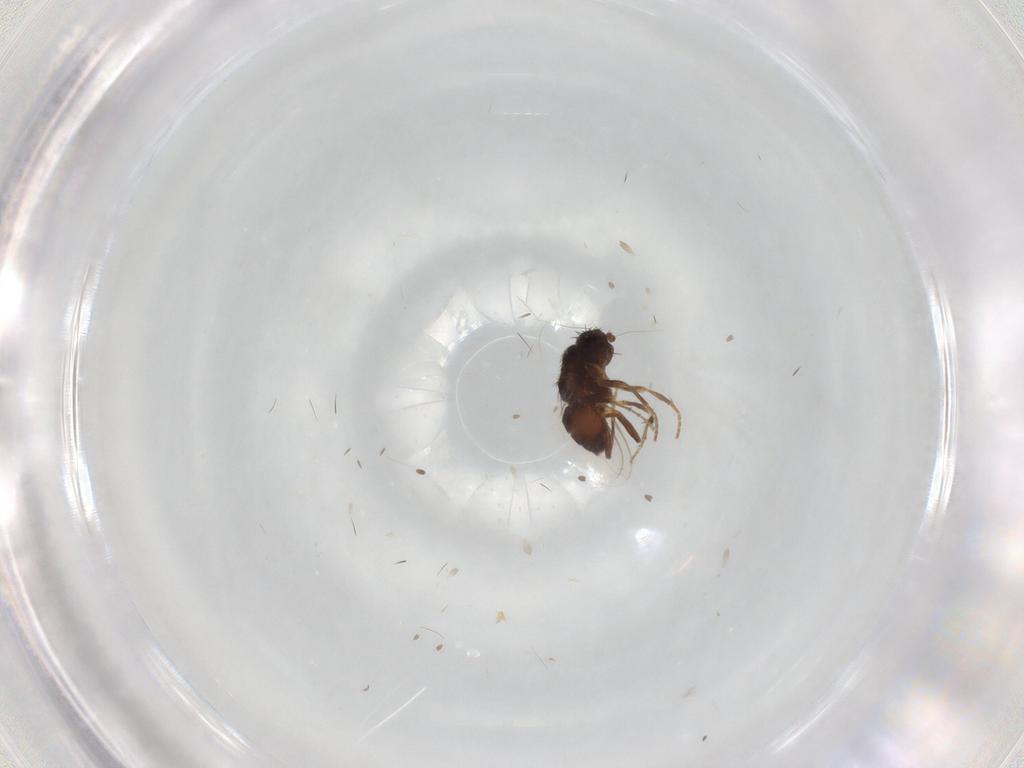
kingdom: Animalia
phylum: Arthropoda
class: Insecta
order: Diptera
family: Sphaeroceridae
